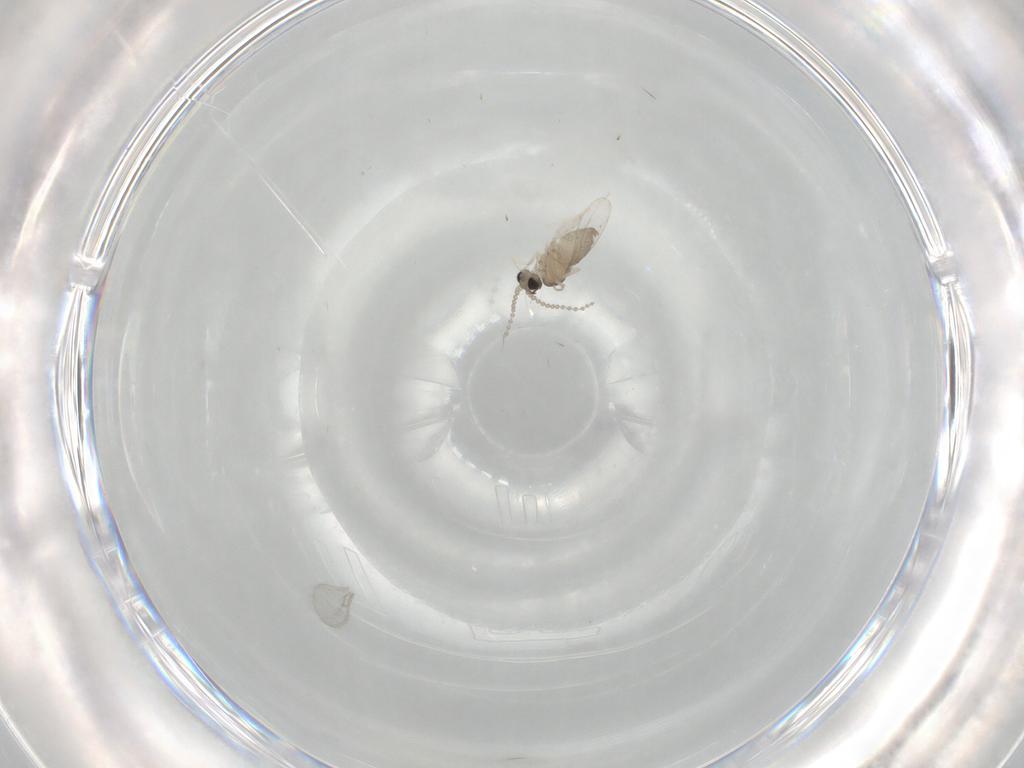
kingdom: Animalia
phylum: Arthropoda
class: Insecta
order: Diptera
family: Cecidomyiidae
